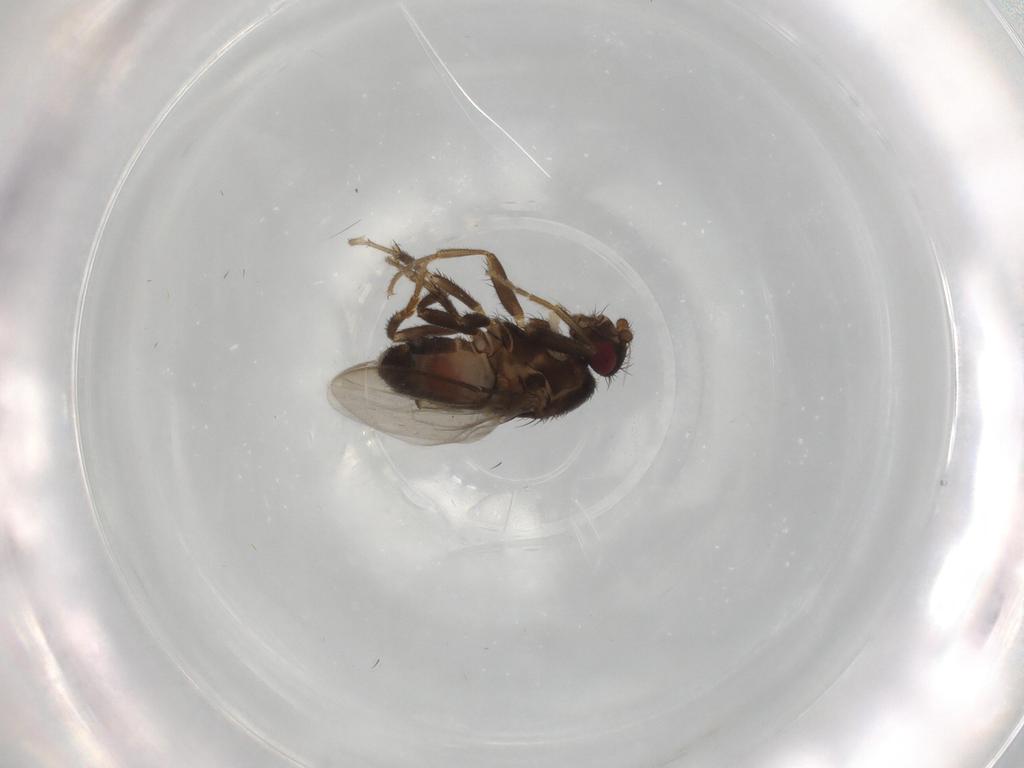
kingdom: Animalia
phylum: Arthropoda
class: Insecta
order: Diptera
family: Sphaeroceridae
